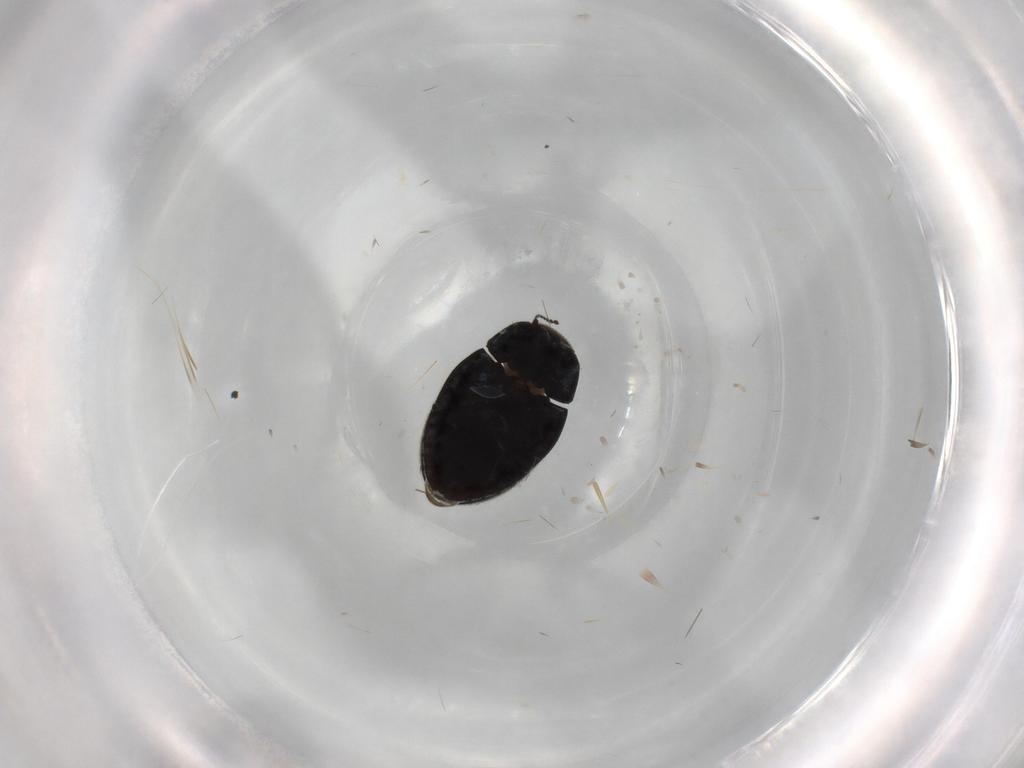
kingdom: Animalia
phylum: Arthropoda
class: Insecta
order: Coleoptera
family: Limnichidae
